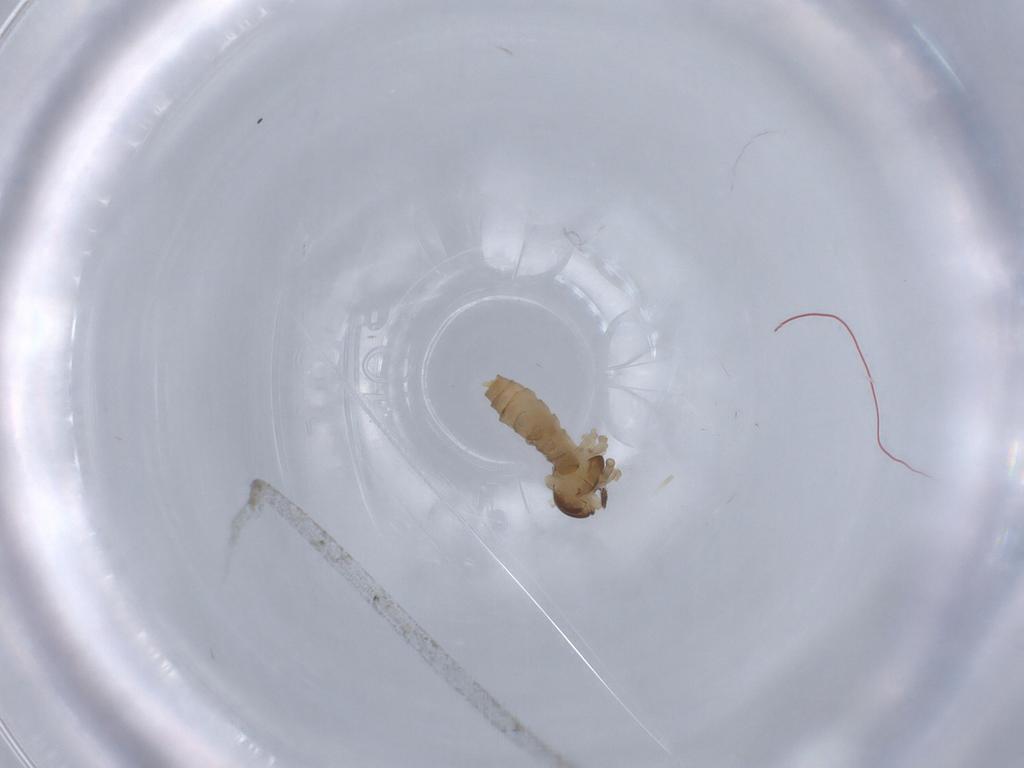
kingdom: Animalia
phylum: Arthropoda
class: Insecta
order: Diptera
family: Cecidomyiidae
